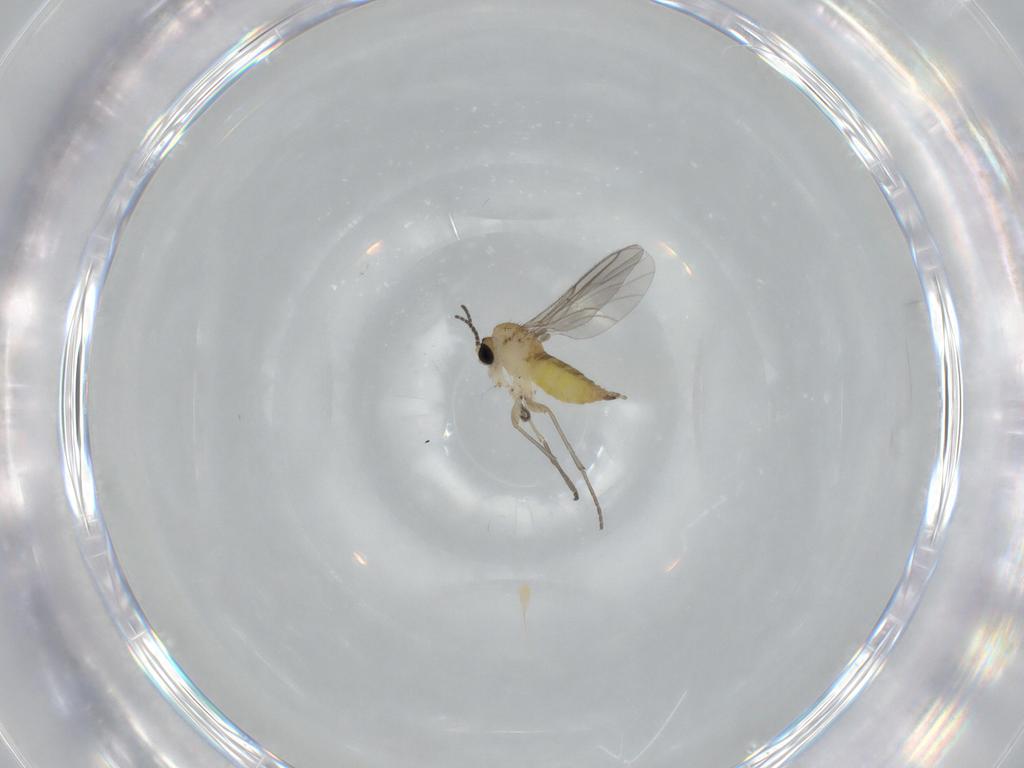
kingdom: Animalia
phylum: Arthropoda
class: Insecta
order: Diptera
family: Sciaridae
